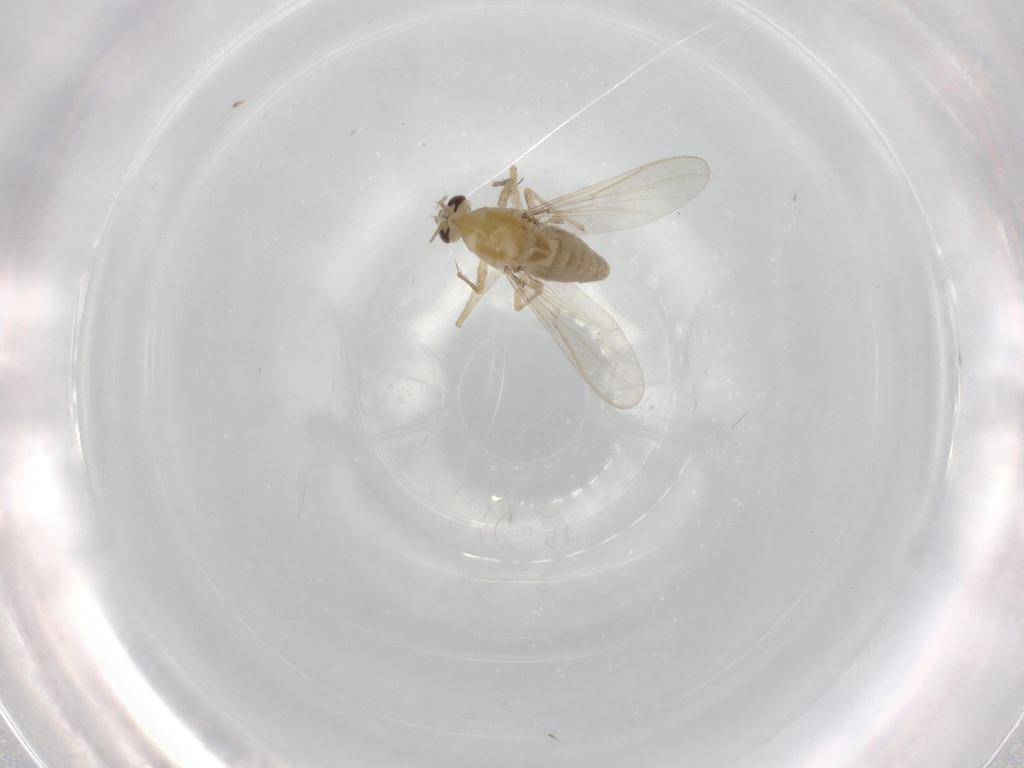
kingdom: Animalia
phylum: Arthropoda
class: Insecta
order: Diptera
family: Chironomidae
